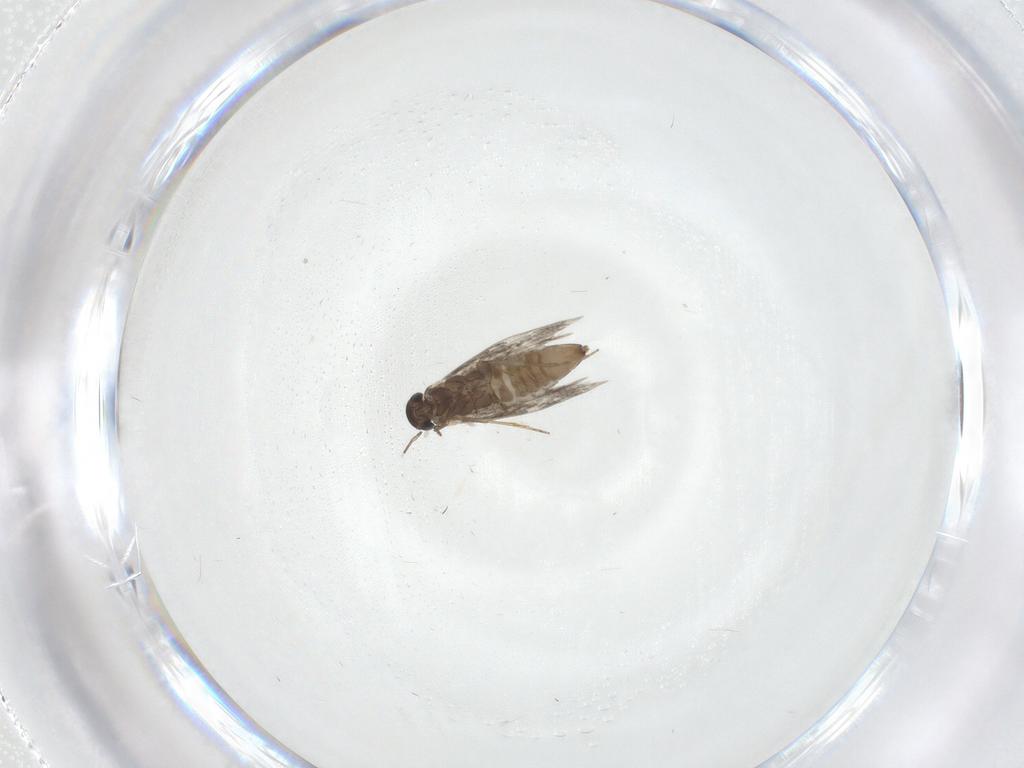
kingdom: Animalia
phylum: Arthropoda
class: Insecta
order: Lepidoptera
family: Heliozelidae
